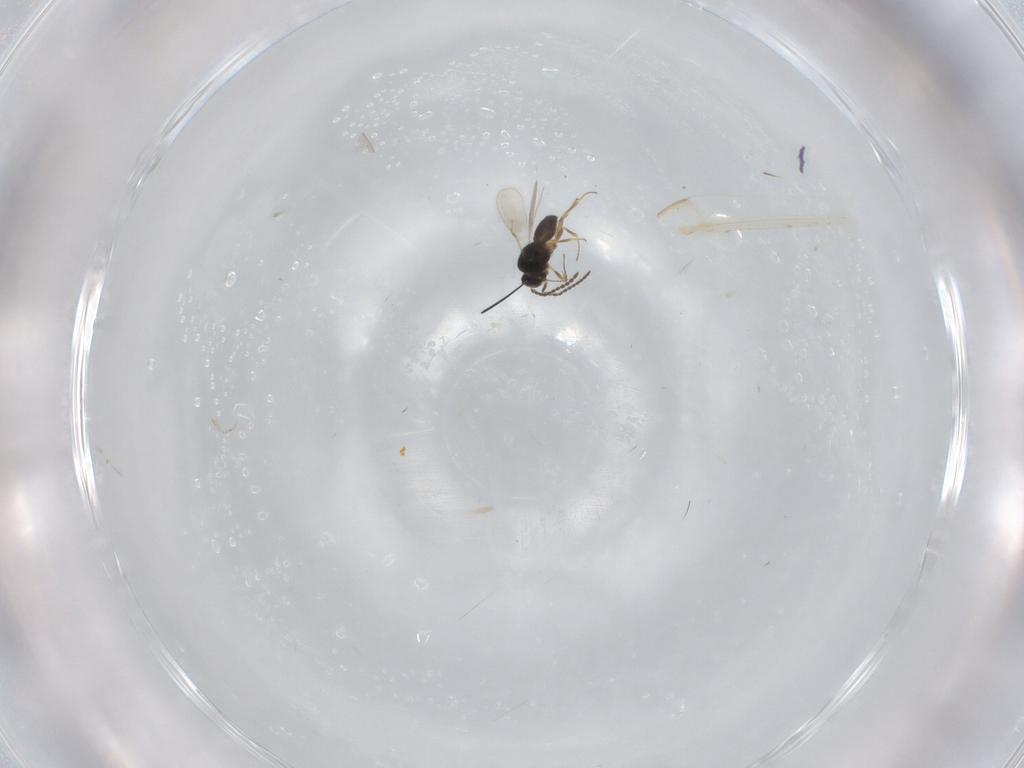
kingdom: Animalia
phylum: Arthropoda
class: Insecta
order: Hymenoptera
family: Scelionidae
